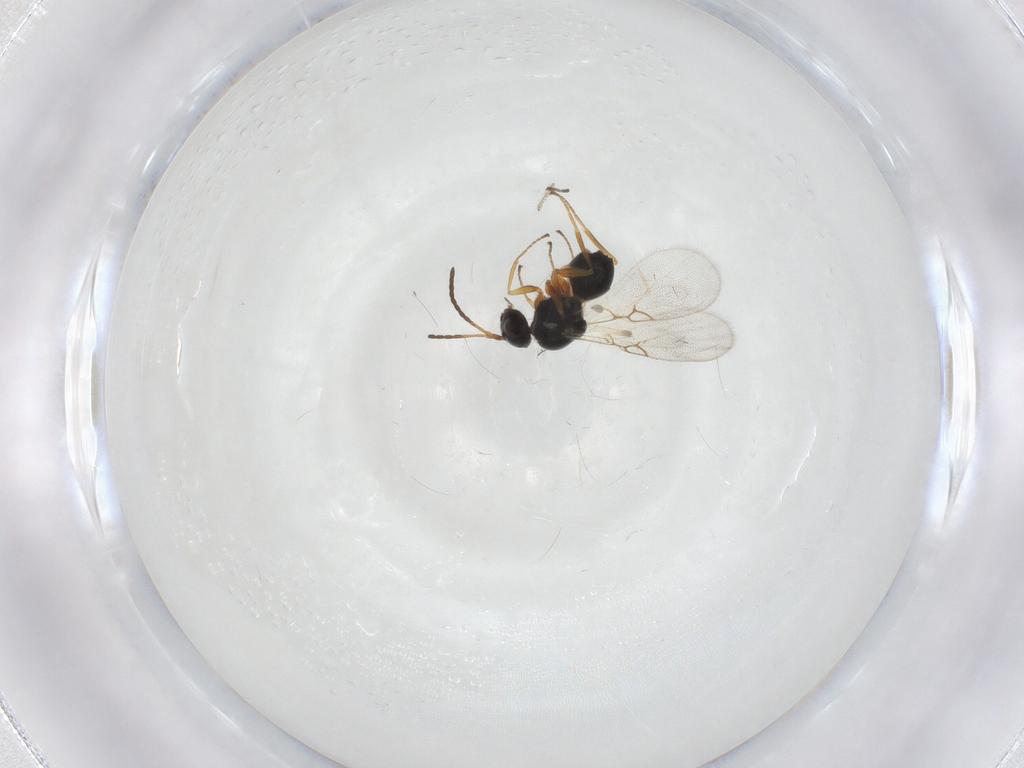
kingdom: Animalia
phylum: Arthropoda
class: Insecta
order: Hymenoptera
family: Figitidae
